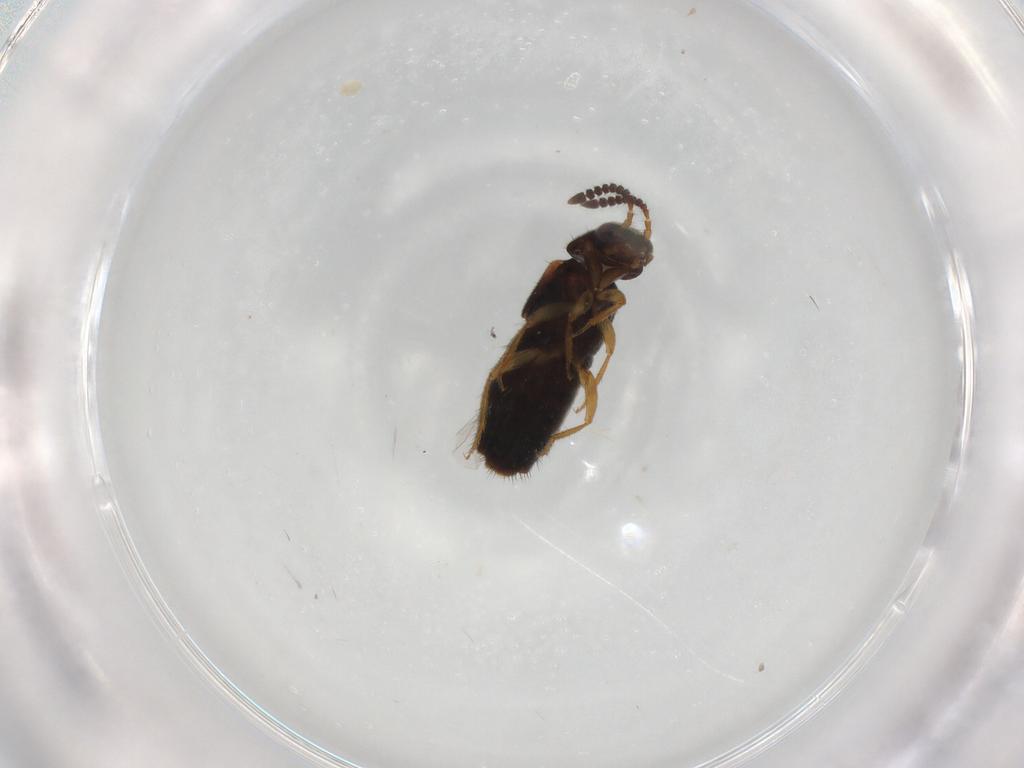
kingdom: Animalia
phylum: Arthropoda
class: Insecta
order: Coleoptera
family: Staphylinidae
